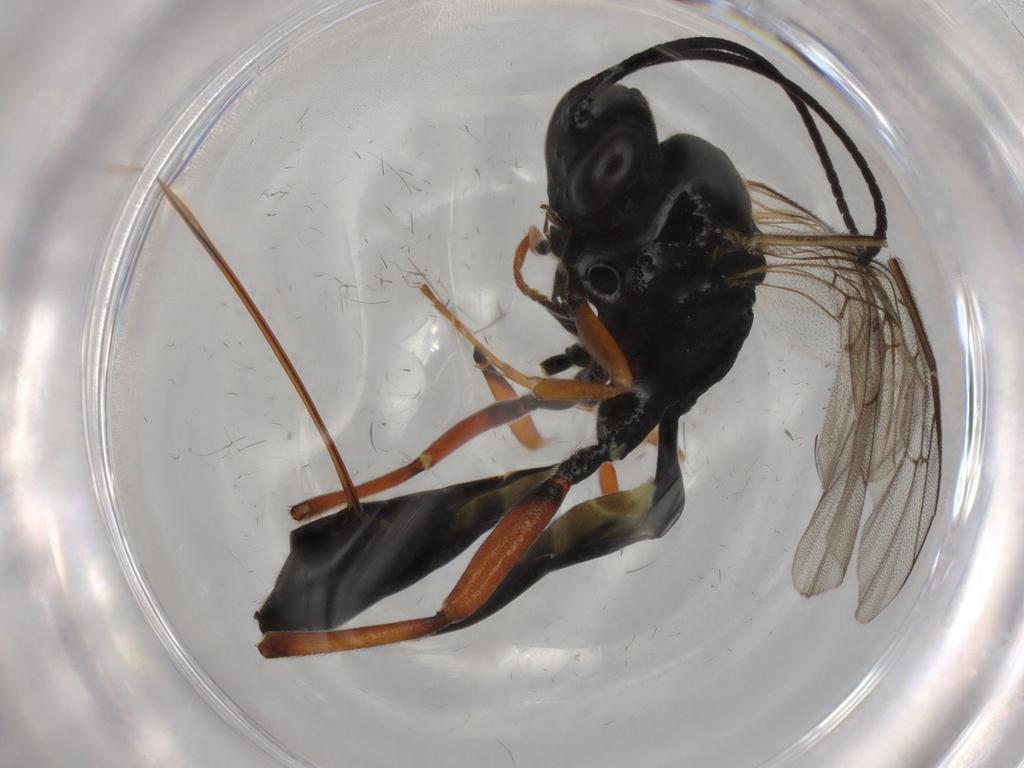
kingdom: Animalia
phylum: Arthropoda
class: Insecta
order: Hymenoptera
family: Ichneumonidae
